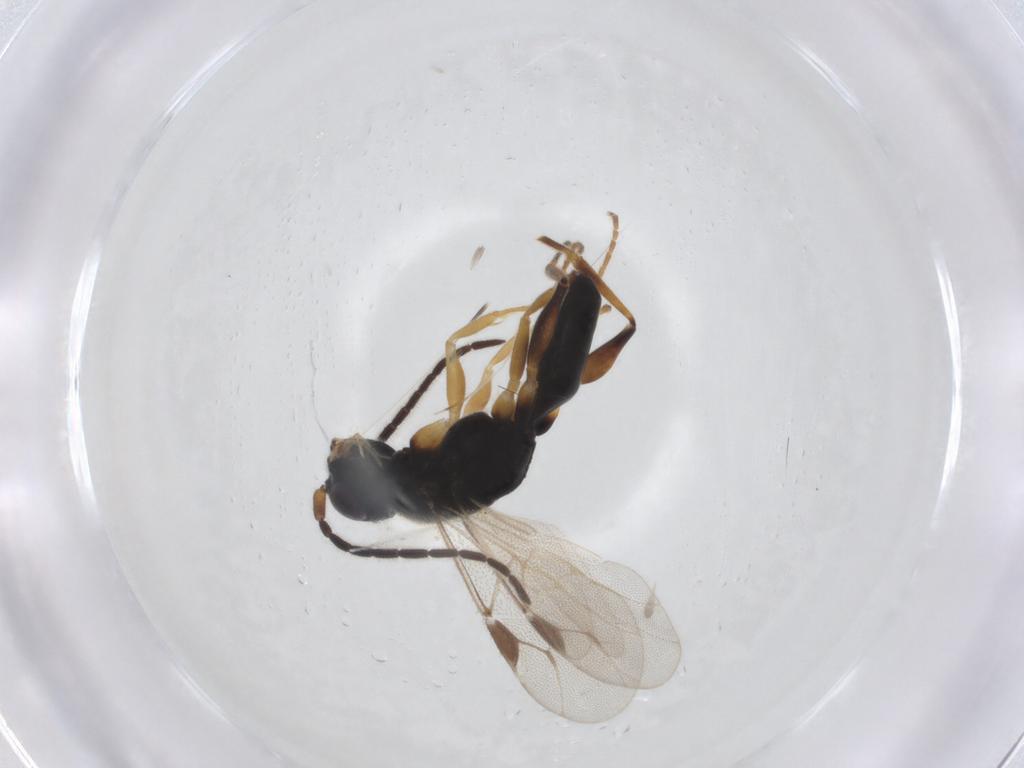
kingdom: Animalia
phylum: Arthropoda
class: Insecta
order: Hymenoptera
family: Dryinidae
